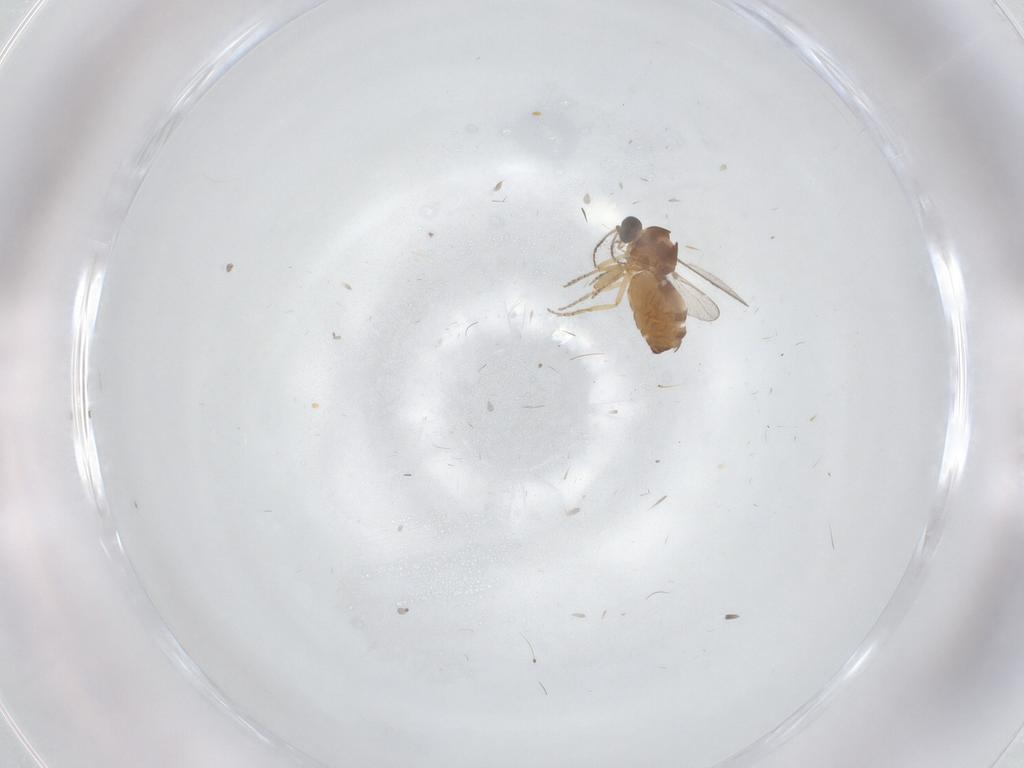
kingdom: Animalia
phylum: Arthropoda
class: Insecta
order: Diptera
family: Ceratopogonidae
